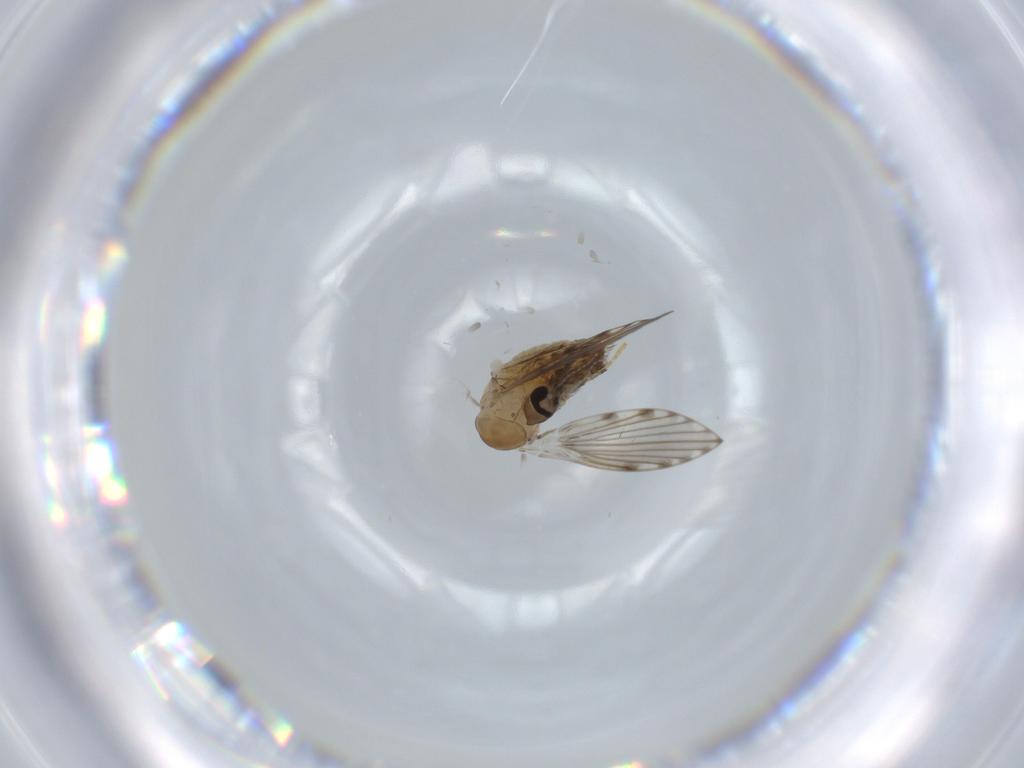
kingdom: Animalia
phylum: Arthropoda
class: Insecta
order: Diptera
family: Psychodidae
